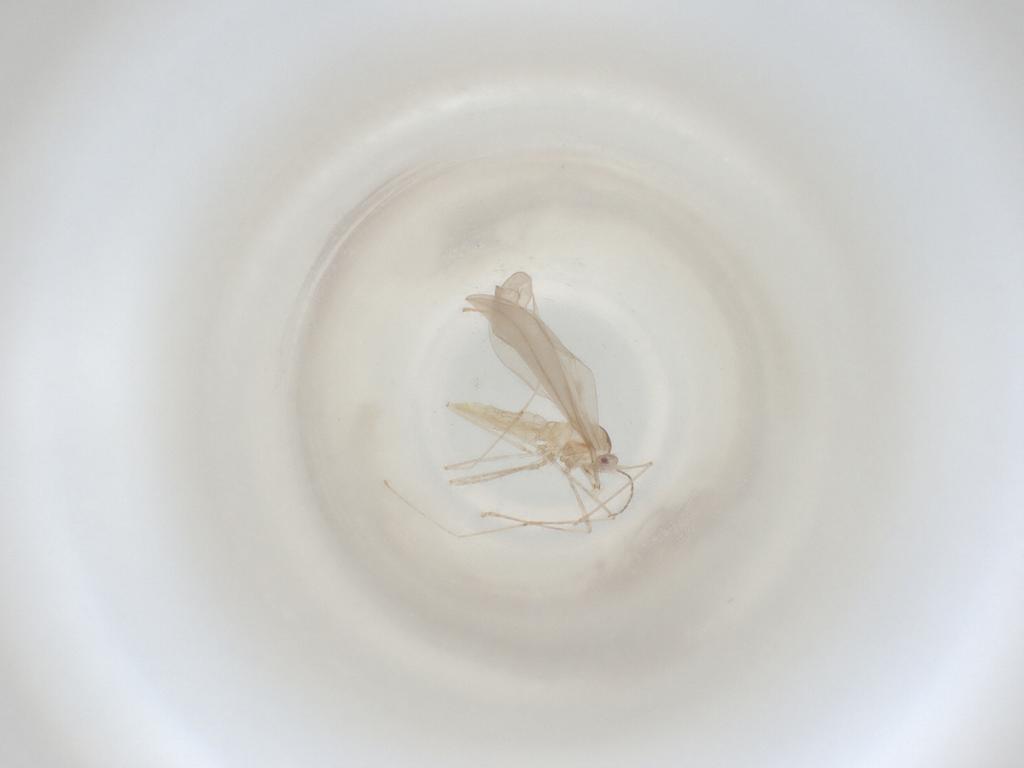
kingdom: Animalia
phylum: Arthropoda
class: Insecta
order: Diptera
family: Cecidomyiidae
